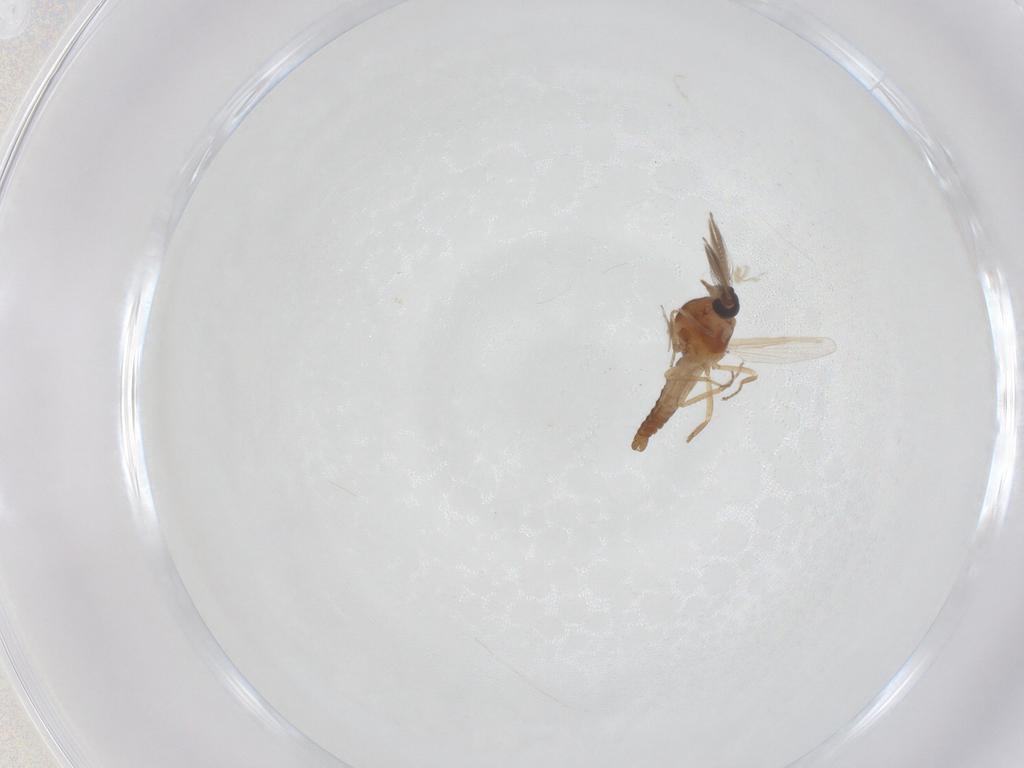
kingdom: Animalia
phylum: Arthropoda
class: Insecta
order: Diptera
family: Ceratopogonidae
